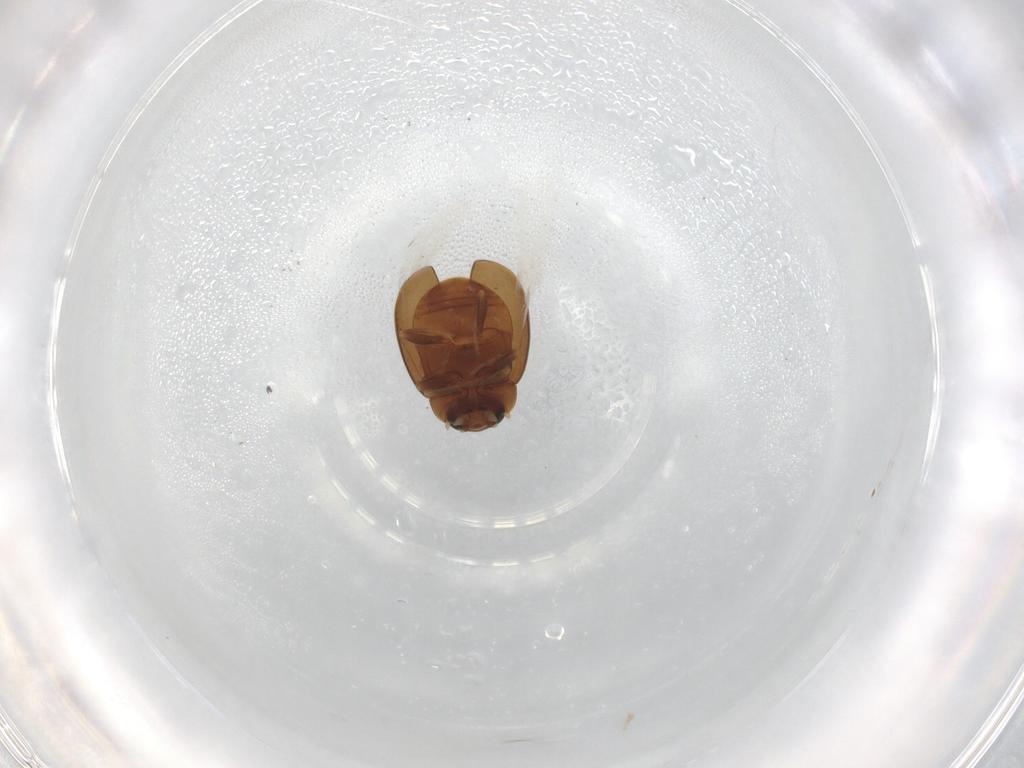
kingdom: Animalia
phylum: Arthropoda
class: Insecta
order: Coleoptera
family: Coccinellidae
